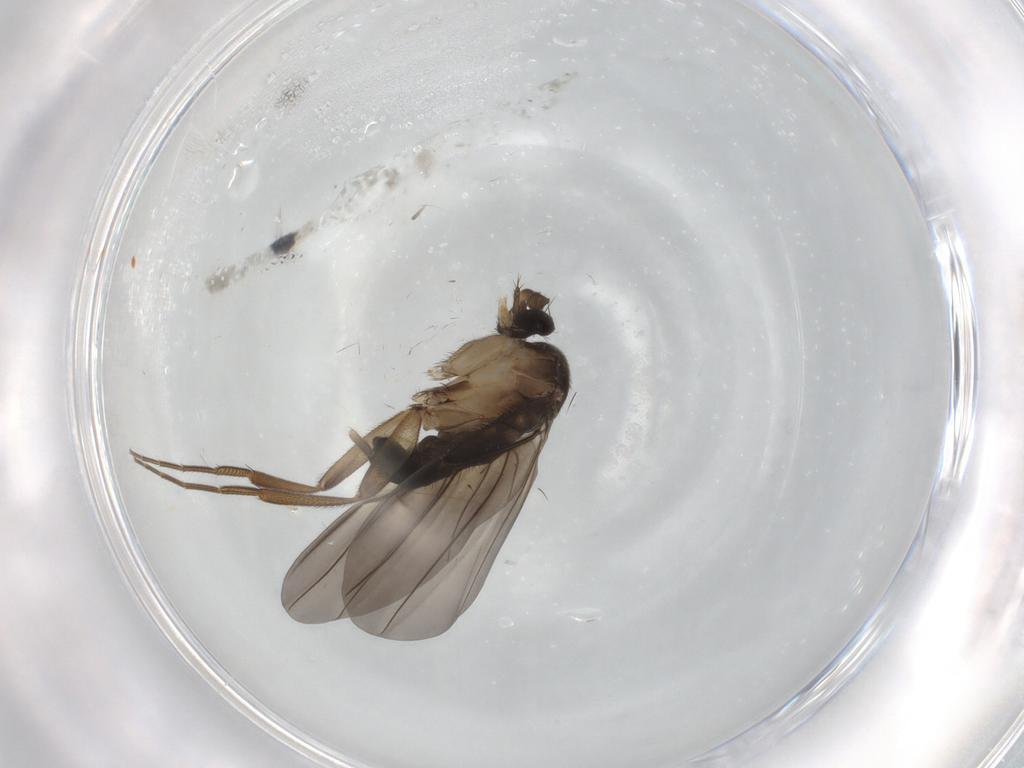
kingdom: Animalia
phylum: Arthropoda
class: Insecta
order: Diptera
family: Phoridae
